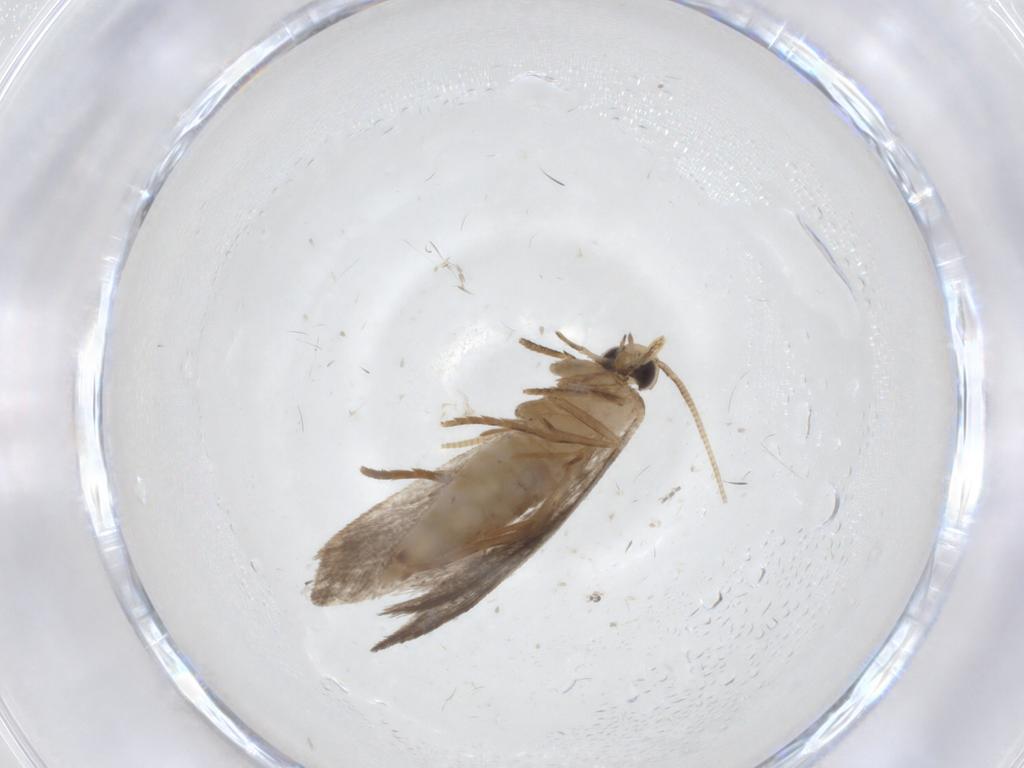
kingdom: Animalia
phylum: Arthropoda
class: Insecta
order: Lepidoptera
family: Tineidae
